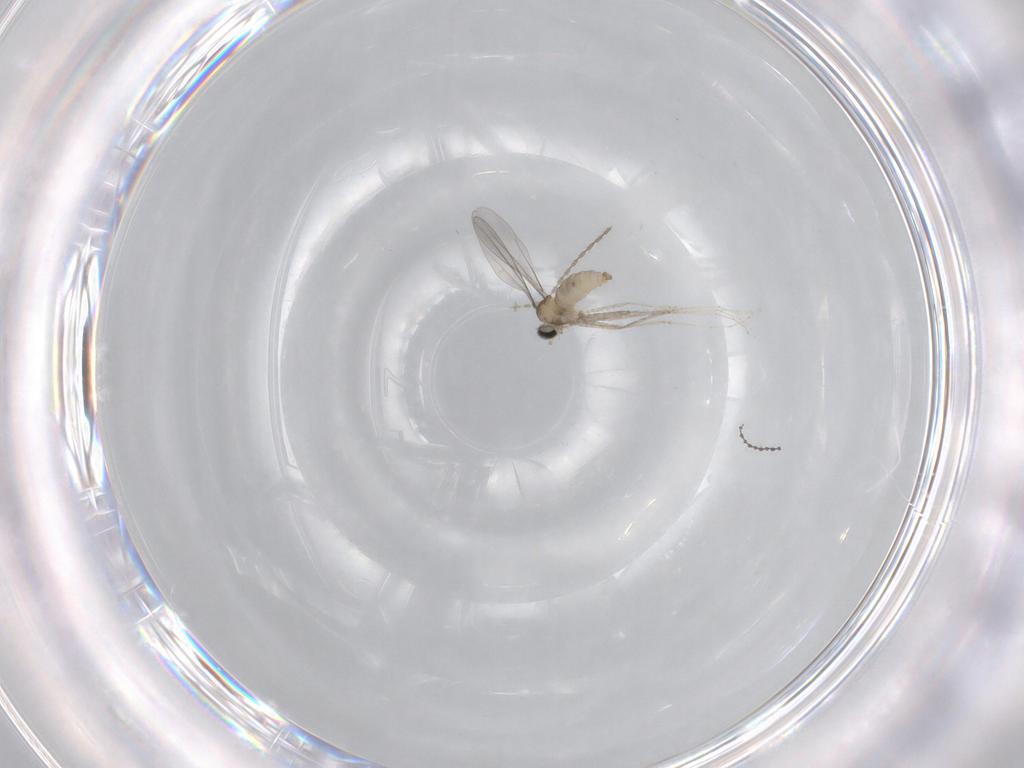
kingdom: Animalia
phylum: Arthropoda
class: Insecta
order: Diptera
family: Cecidomyiidae
